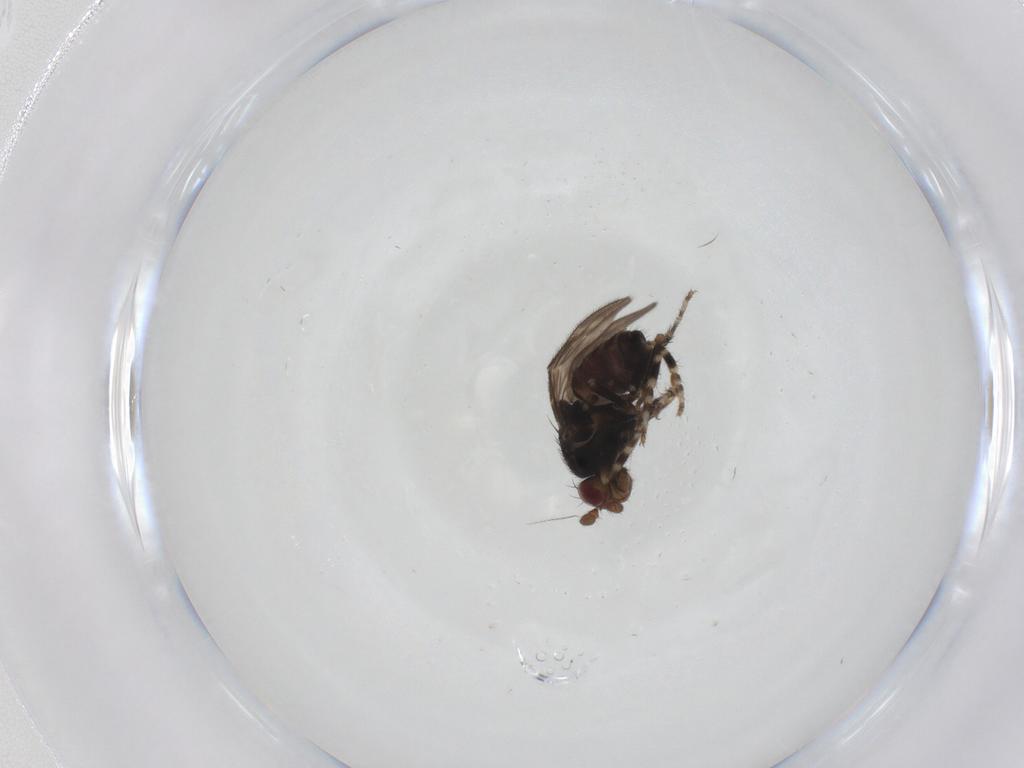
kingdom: Animalia
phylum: Arthropoda
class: Insecta
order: Diptera
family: Sphaeroceridae
